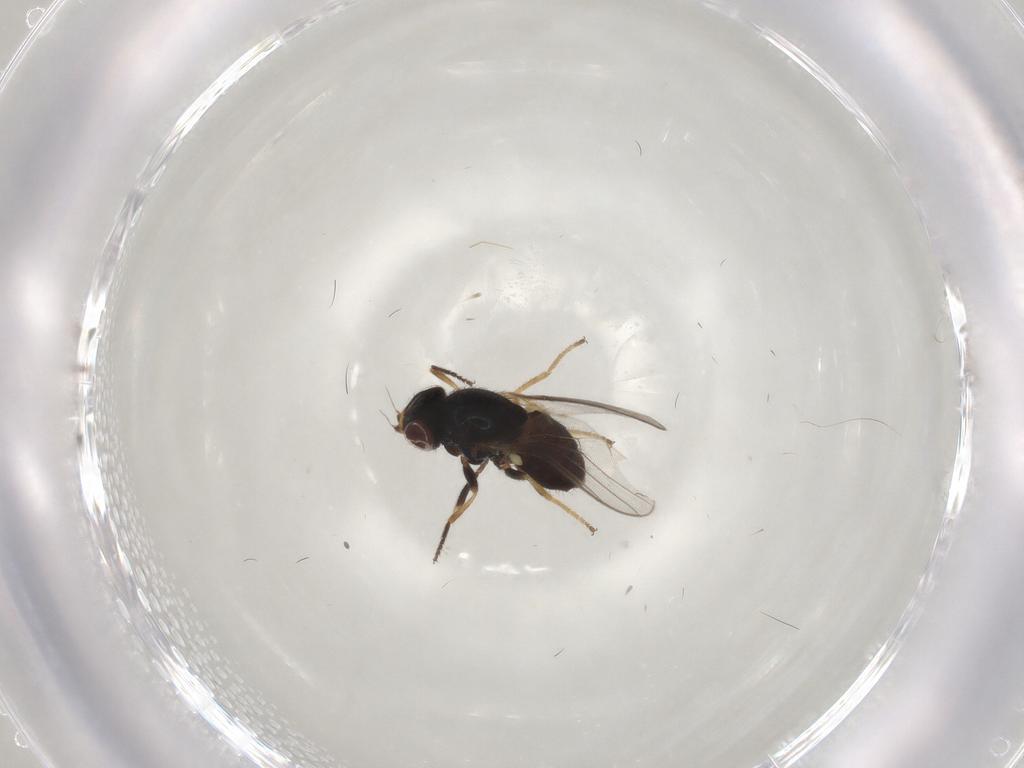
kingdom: Animalia
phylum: Arthropoda
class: Insecta
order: Diptera
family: Chloropidae
